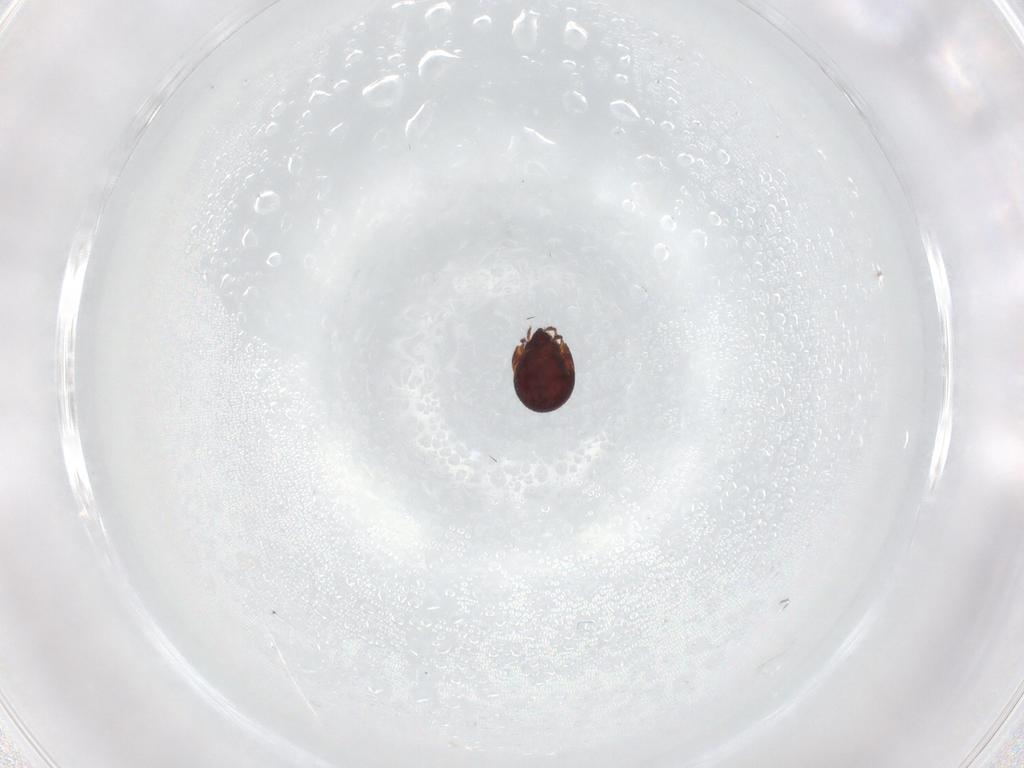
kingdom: Animalia
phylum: Arthropoda
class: Arachnida
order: Sarcoptiformes
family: Humerobatidae
